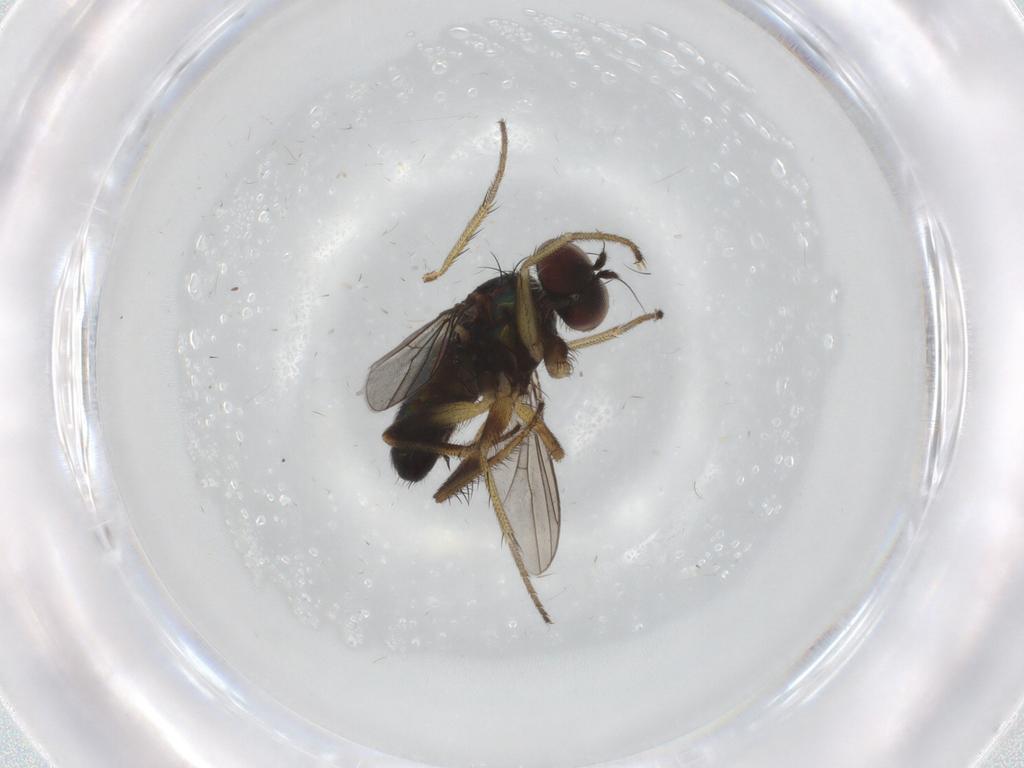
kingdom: Animalia
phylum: Arthropoda
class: Insecta
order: Diptera
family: Dolichopodidae
